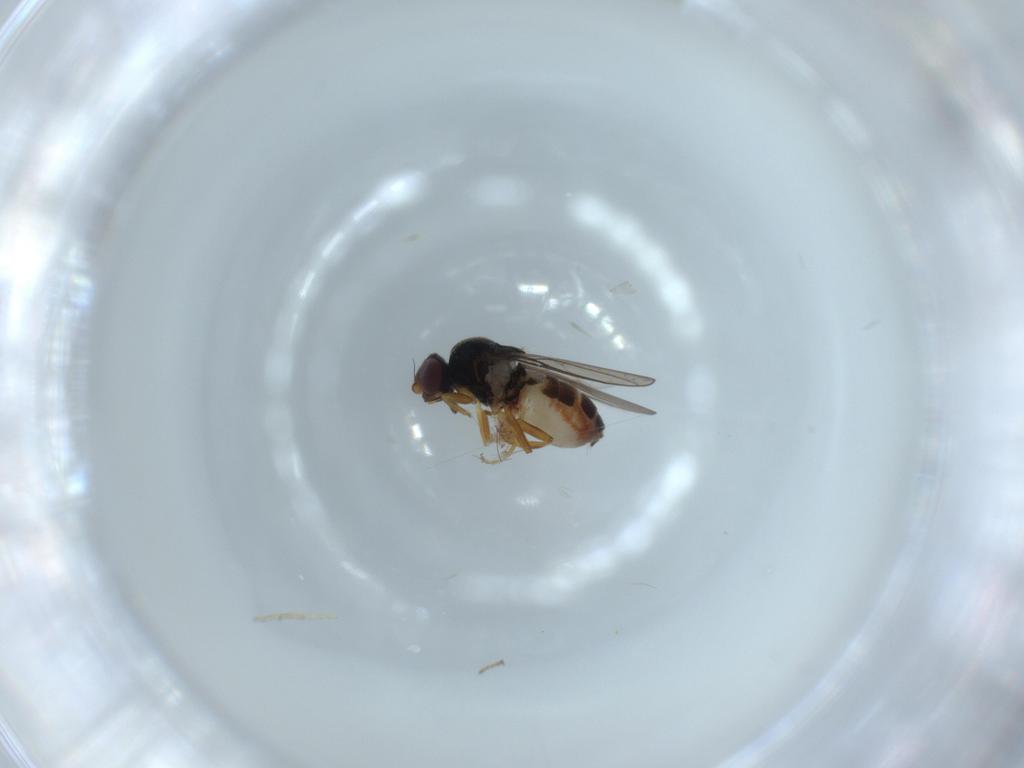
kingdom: Animalia
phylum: Arthropoda
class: Insecta
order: Diptera
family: Chloropidae
